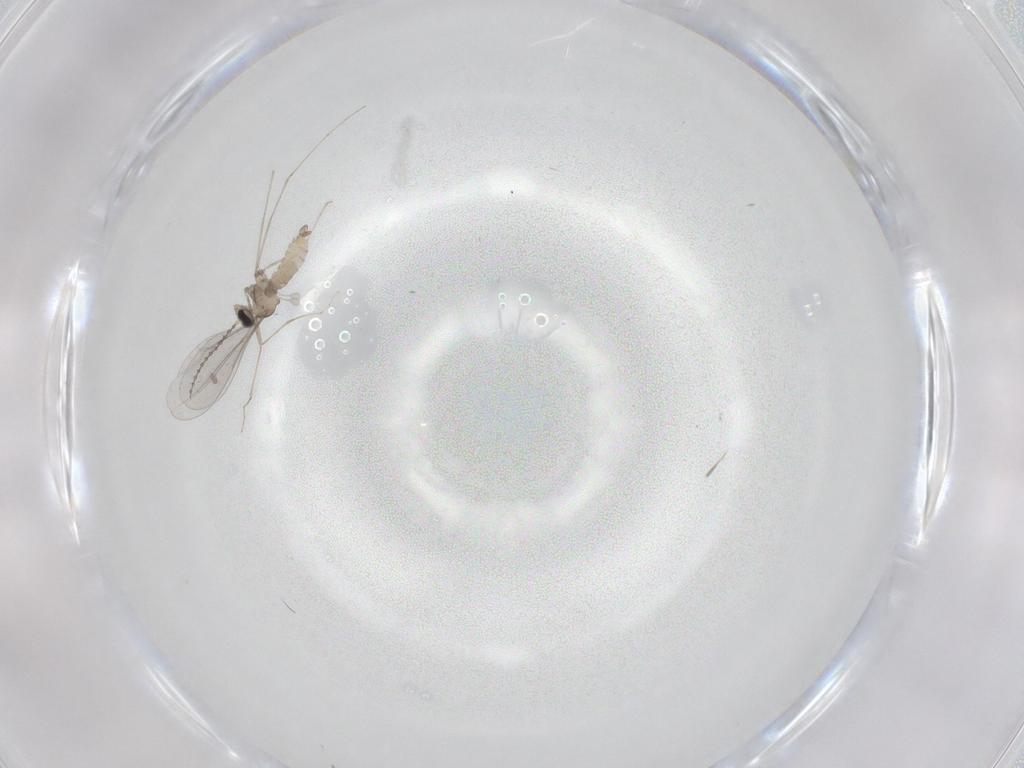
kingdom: Animalia
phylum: Arthropoda
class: Insecta
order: Diptera
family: Cecidomyiidae
